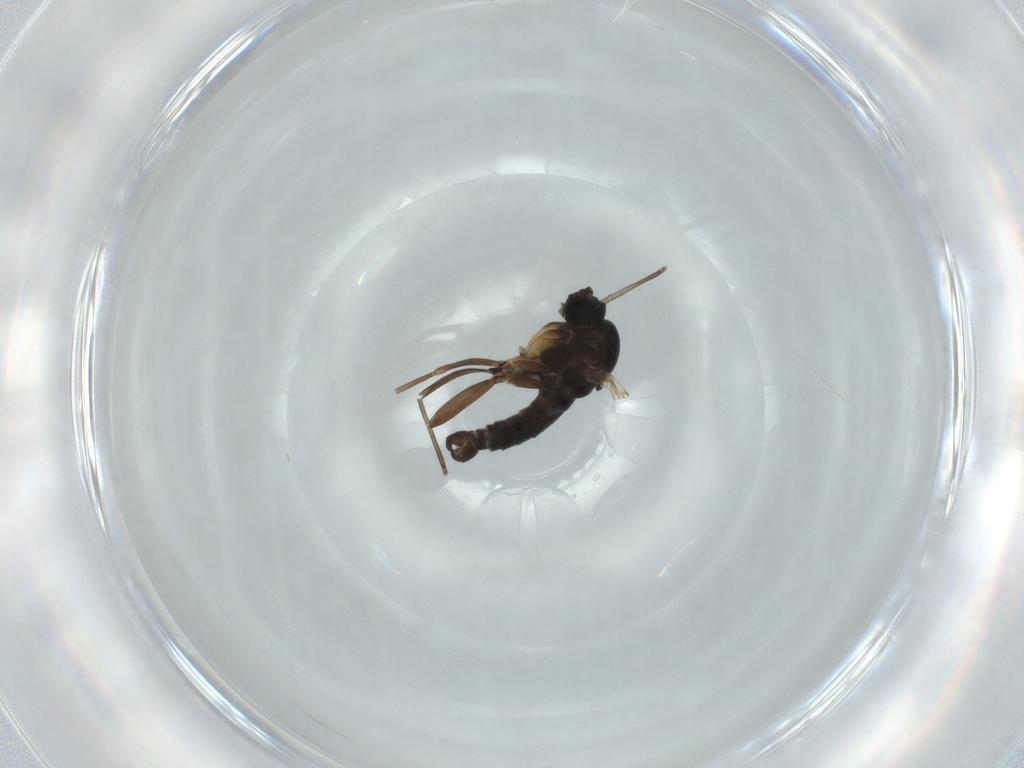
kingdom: Animalia
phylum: Arthropoda
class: Insecta
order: Diptera
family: Sciaridae
